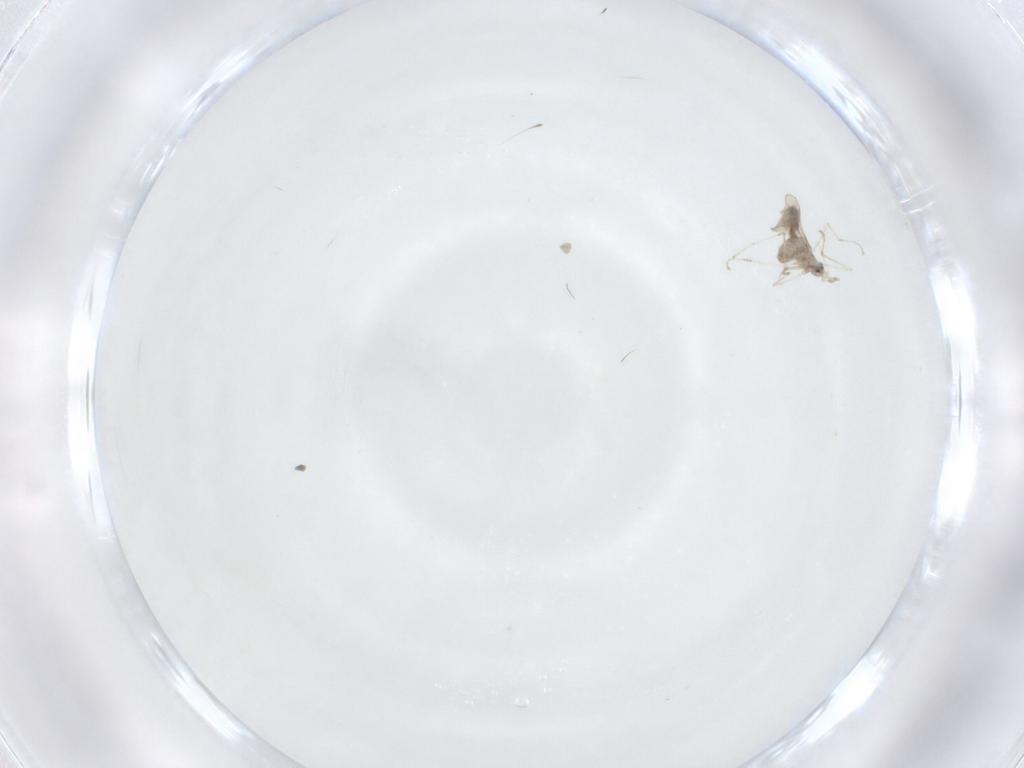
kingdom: Animalia
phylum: Arthropoda
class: Insecta
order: Diptera
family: Cecidomyiidae
